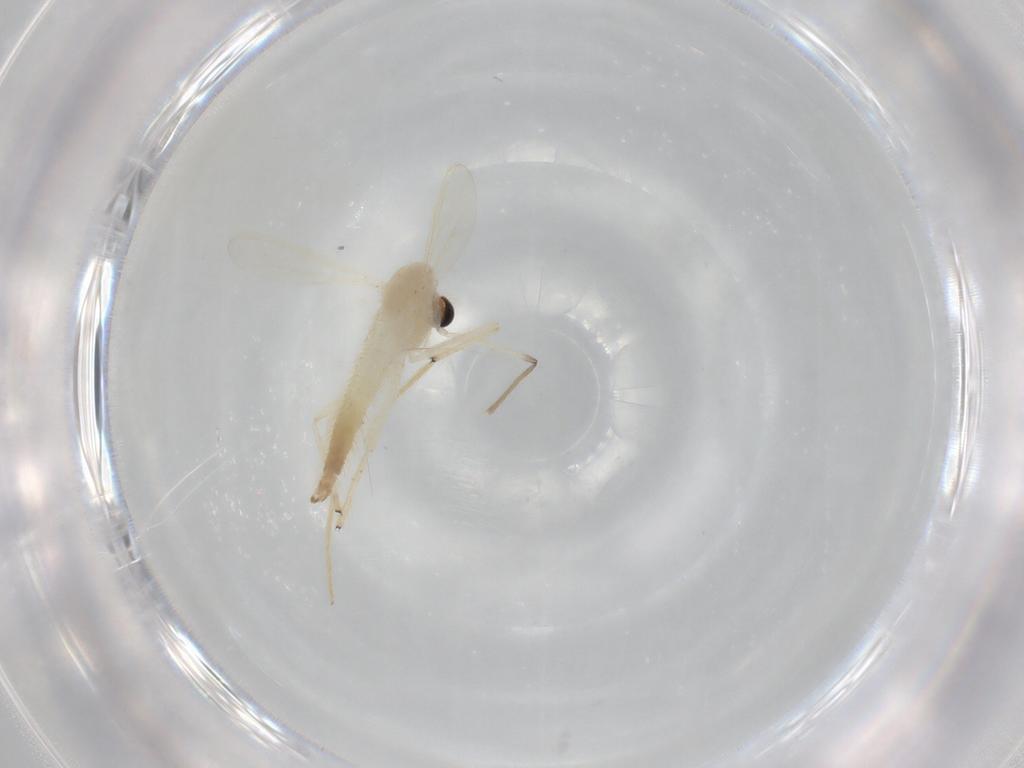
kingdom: Animalia
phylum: Arthropoda
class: Insecta
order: Diptera
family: Chironomidae
